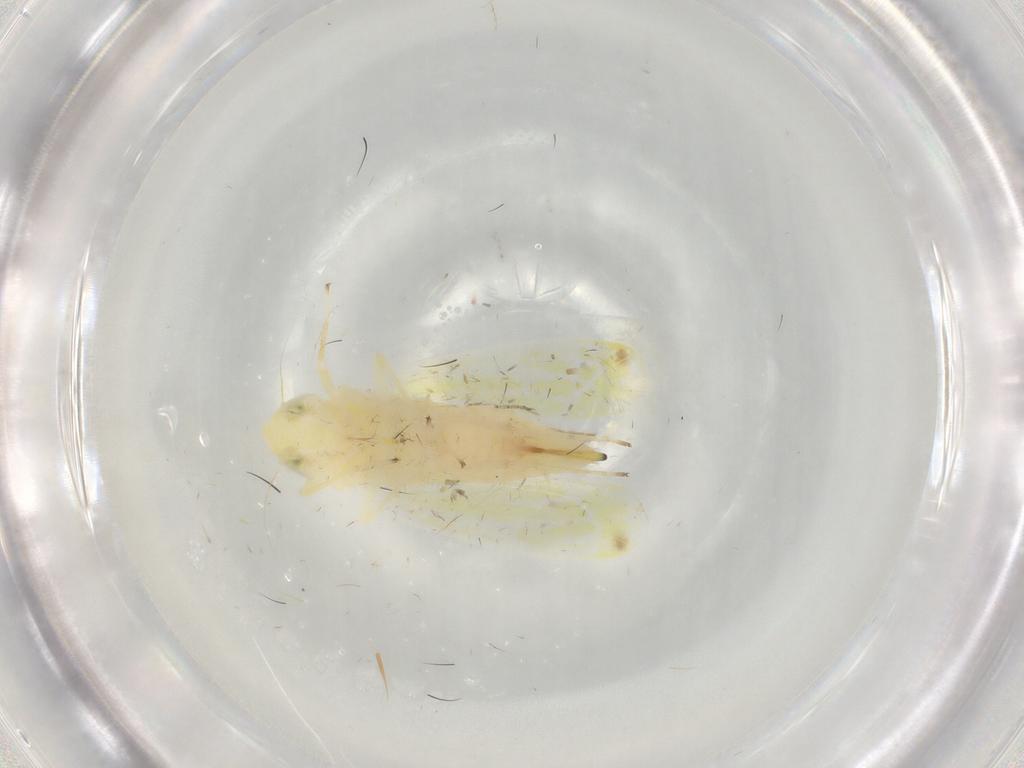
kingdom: Animalia
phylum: Arthropoda
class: Insecta
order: Hemiptera
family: Cicadellidae
